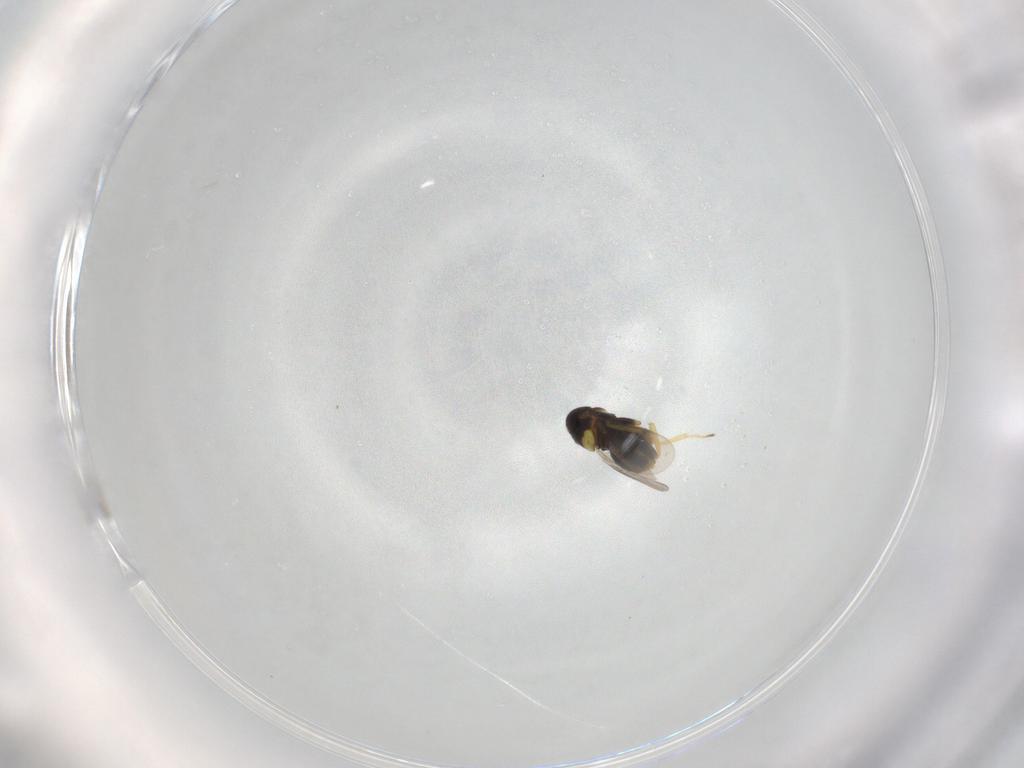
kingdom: Animalia
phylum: Arthropoda
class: Insecta
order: Hymenoptera
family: Aphelinidae
